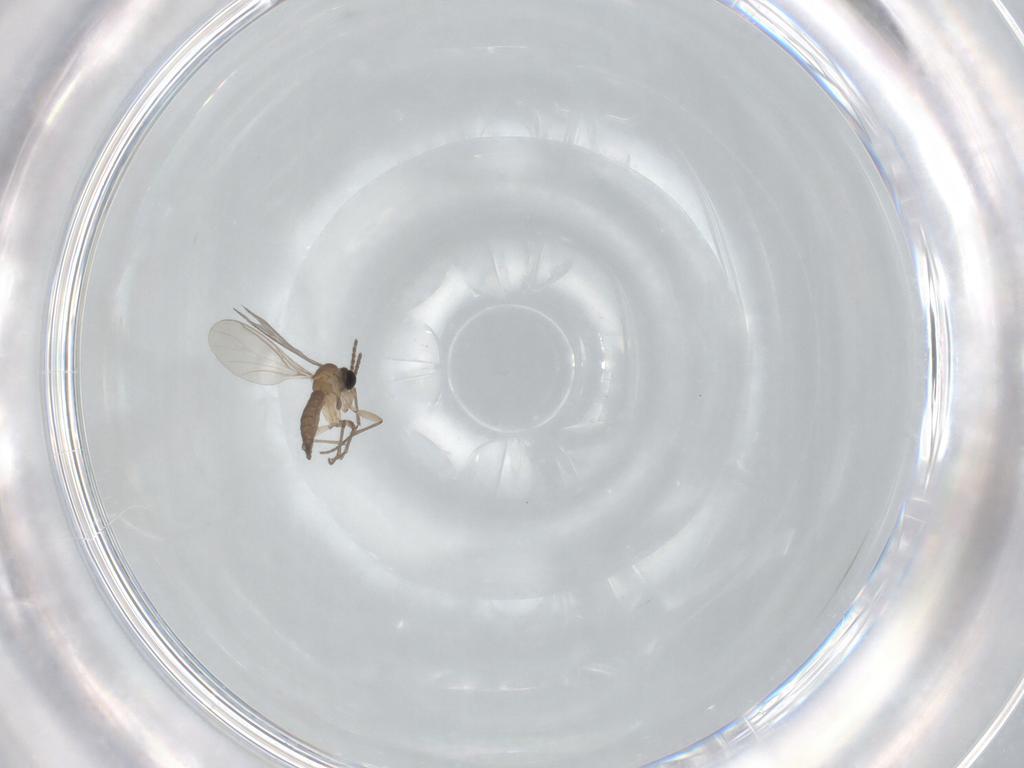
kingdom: Animalia
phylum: Arthropoda
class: Insecta
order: Diptera
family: Sciaridae
